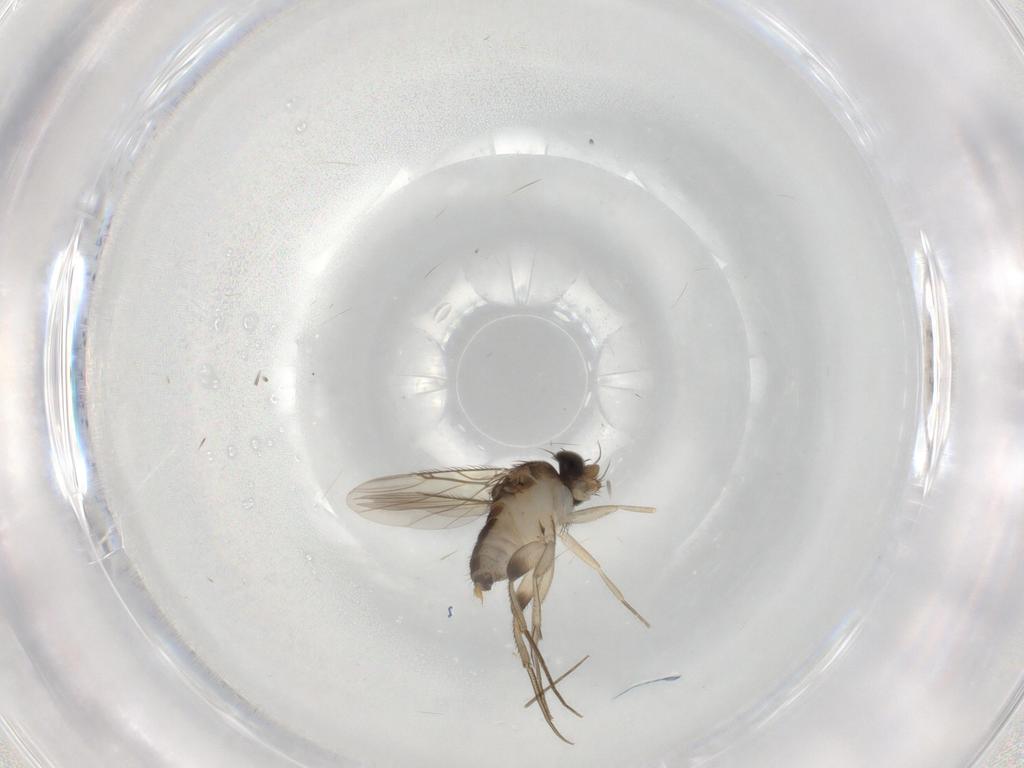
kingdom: Animalia
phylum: Arthropoda
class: Insecta
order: Diptera
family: Phoridae
